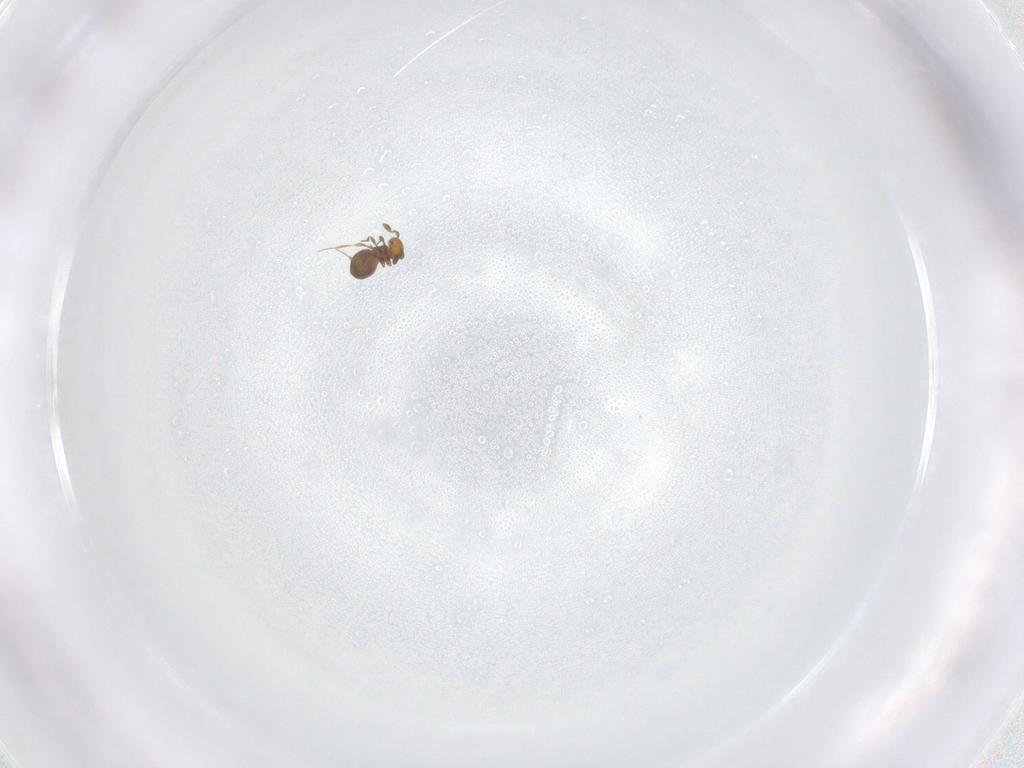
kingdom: Animalia
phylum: Arthropoda
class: Insecta
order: Hymenoptera
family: Platygastridae
